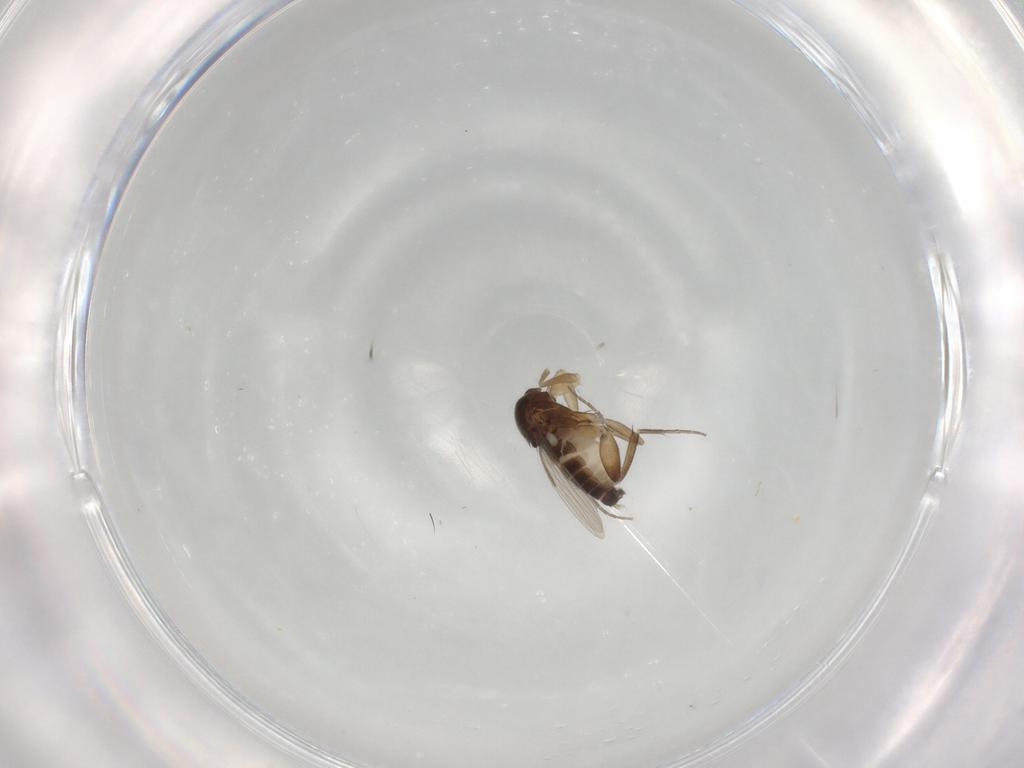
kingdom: Animalia
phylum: Arthropoda
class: Insecta
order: Diptera
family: Phoridae
